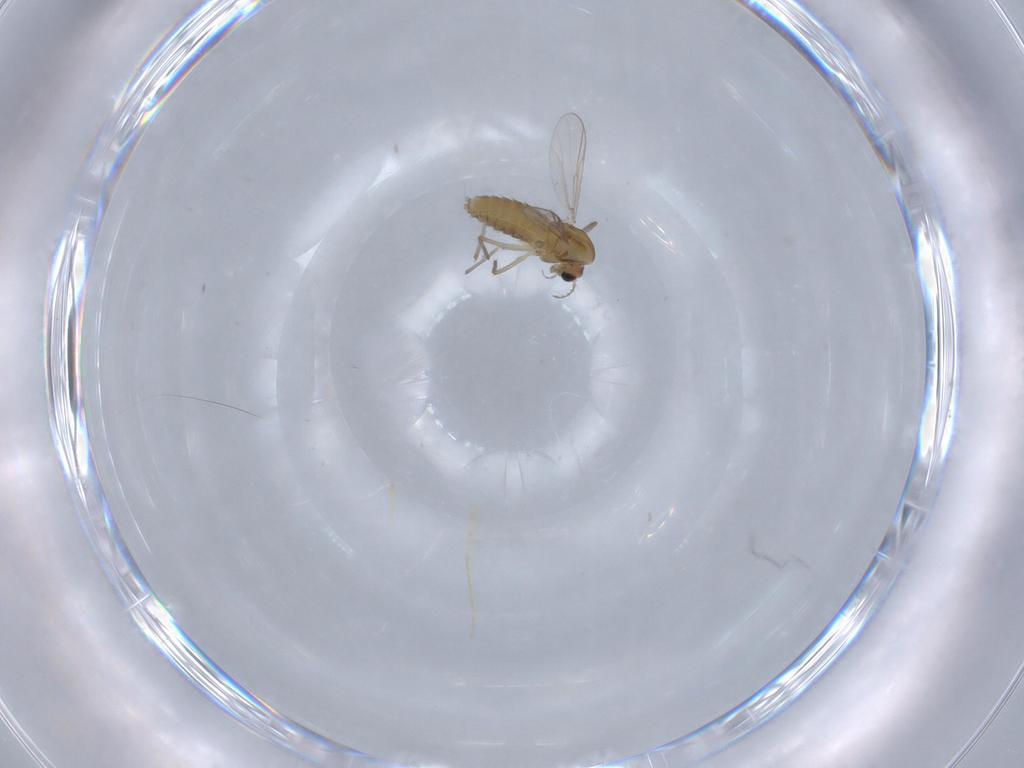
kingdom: Animalia
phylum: Arthropoda
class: Insecta
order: Diptera
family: Chironomidae
